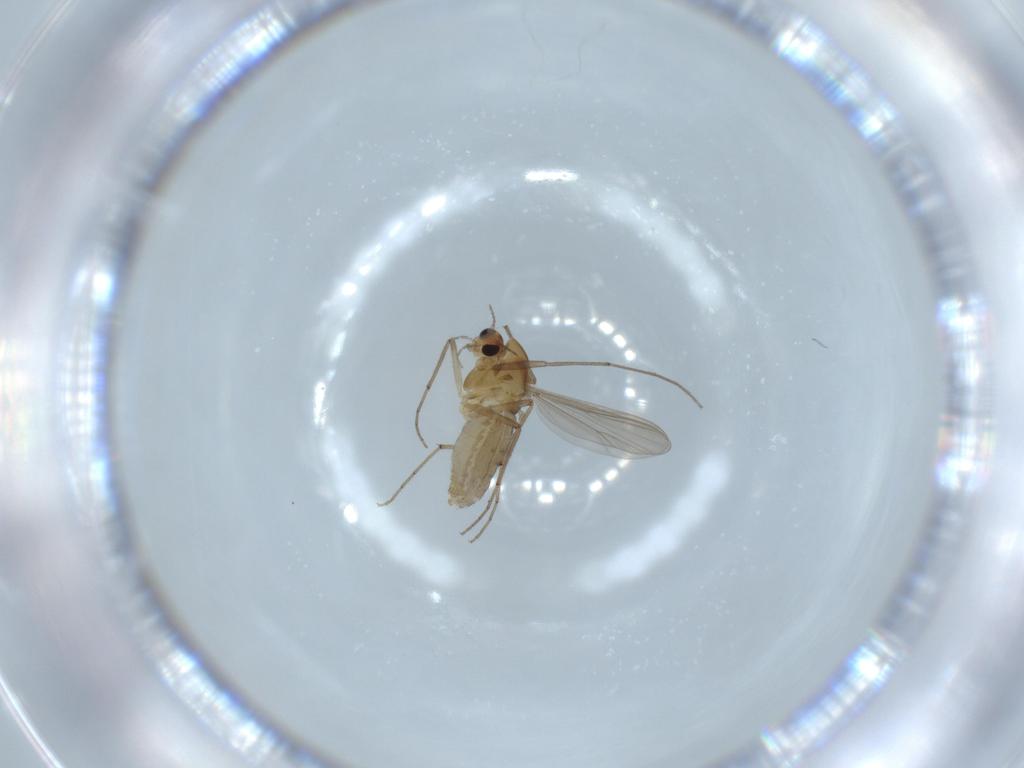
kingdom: Animalia
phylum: Arthropoda
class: Insecta
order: Diptera
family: Chironomidae
